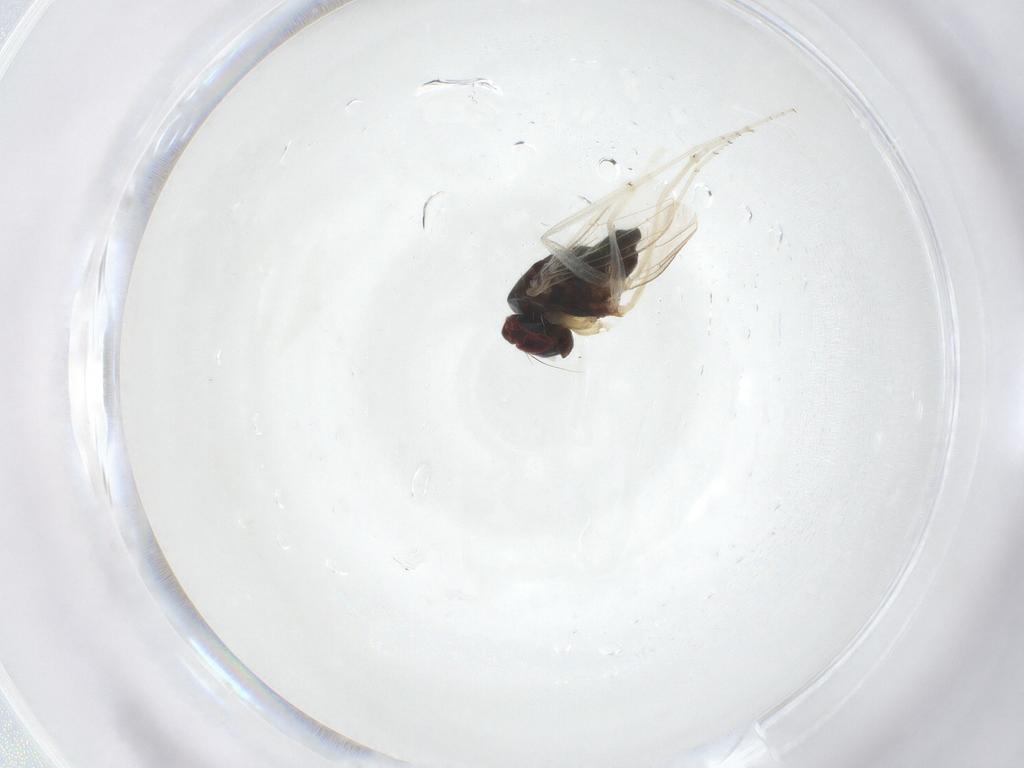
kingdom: Animalia
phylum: Arthropoda
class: Insecta
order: Diptera
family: Dolichopodidae
